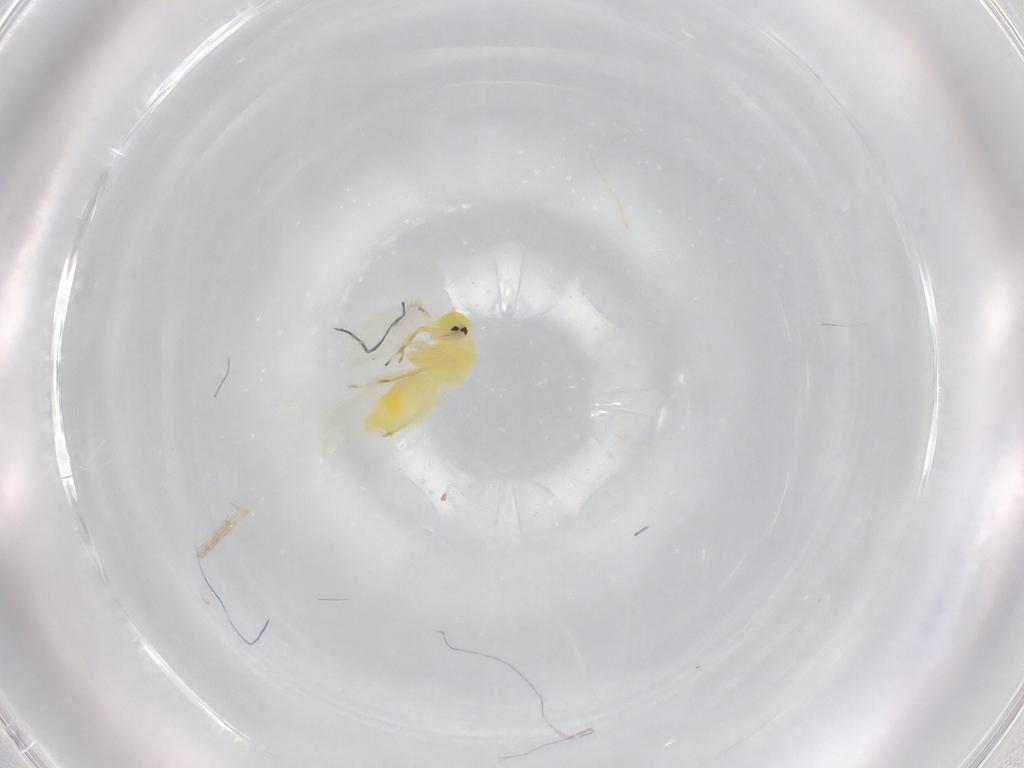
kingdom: Animalia
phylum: Arthropoda
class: Insecta
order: Hemiptera
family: Aleyrodidae
